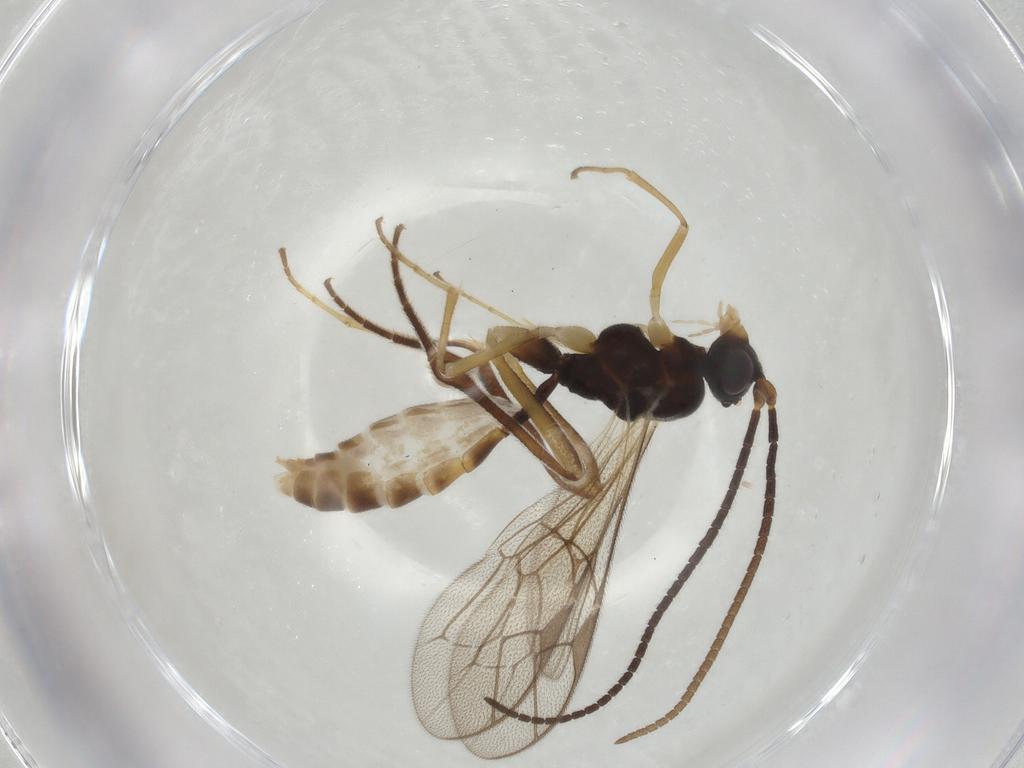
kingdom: Animalia
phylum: Arthropoda
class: Insecta
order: Hymenoptera
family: Ichneumonidae
